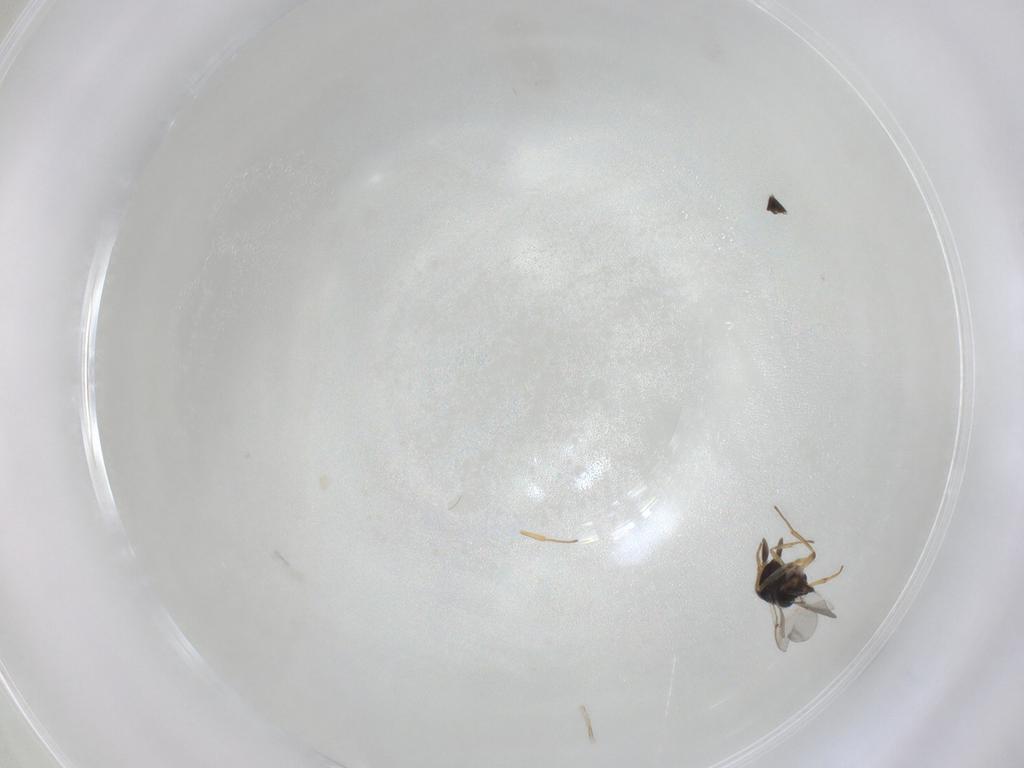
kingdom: Animalia
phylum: Arthropoda
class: Insecta
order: Hymenoptera
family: Encyrtidae
